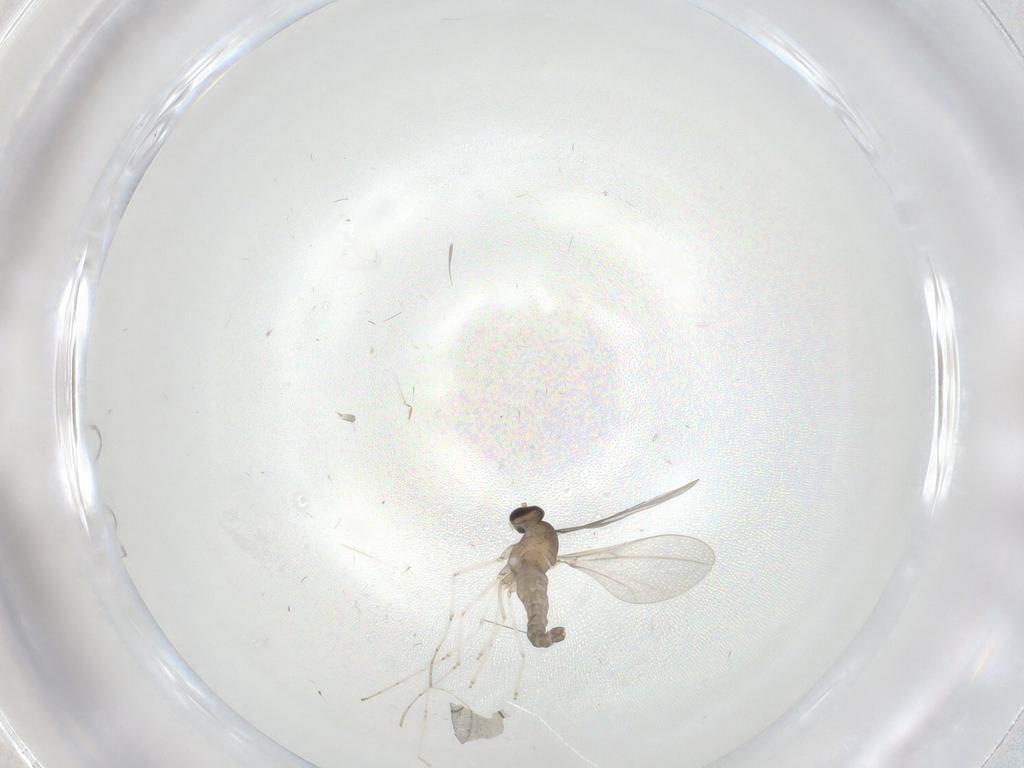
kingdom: Animalia
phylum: Arthropoda
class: Insecta
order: Diptera
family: Cecidomyiidae
